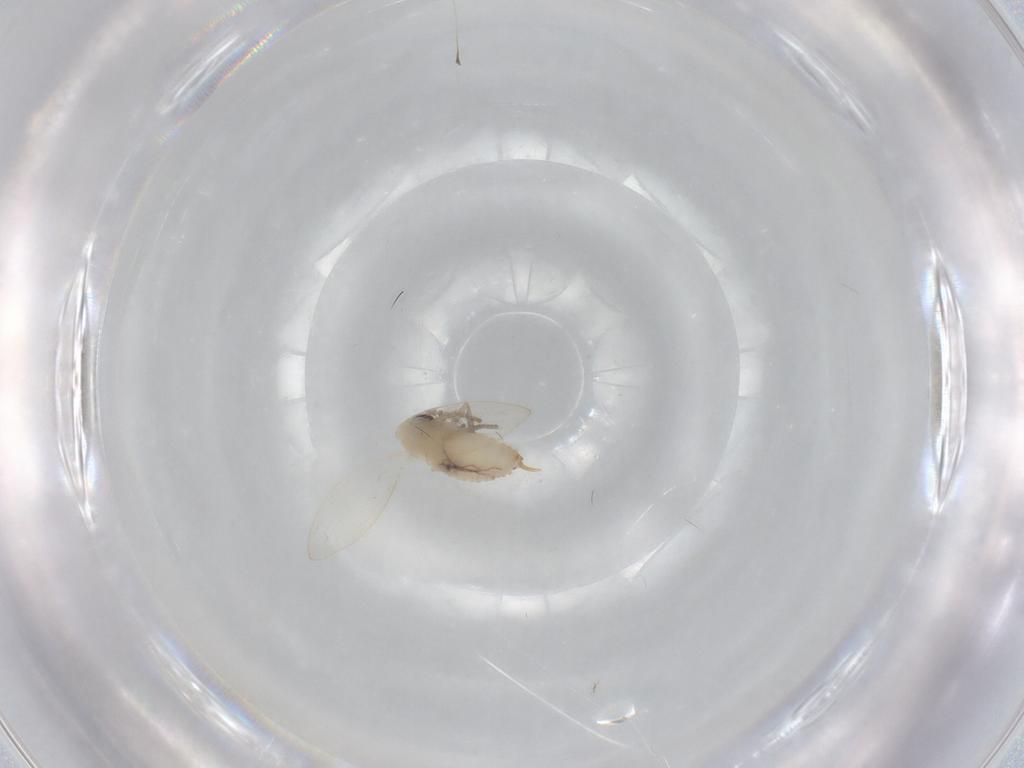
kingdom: Animalia
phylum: Arthropoda
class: Insecta
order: Diptera
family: Psychodidae
